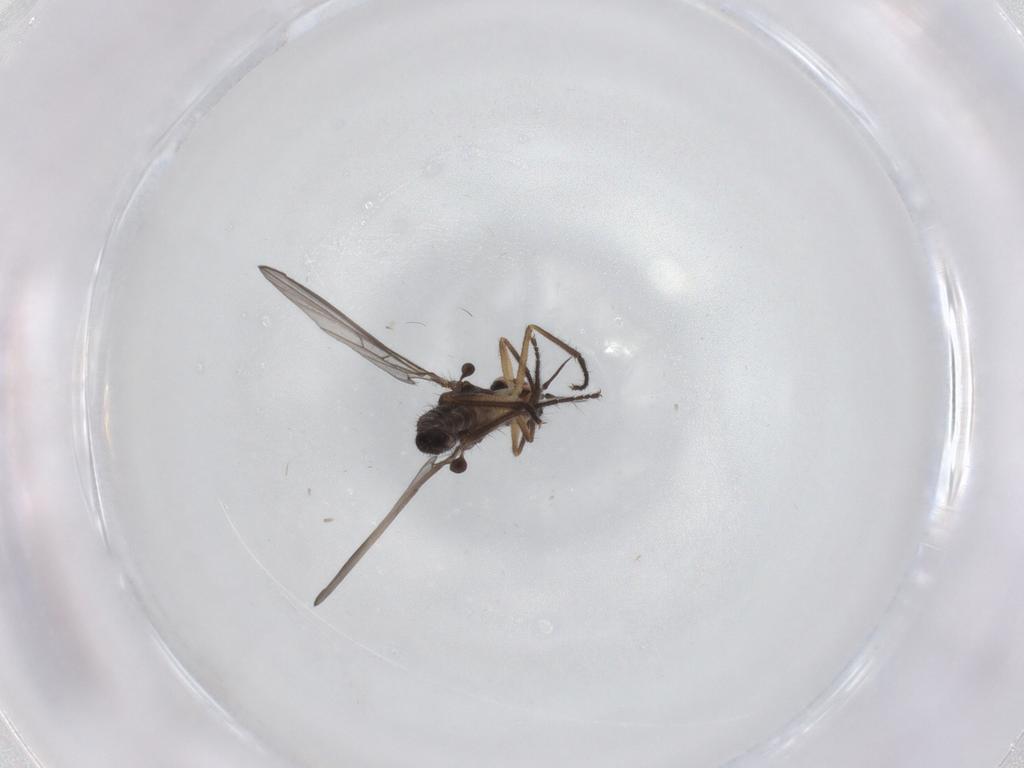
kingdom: Animalia
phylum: Arthropoda
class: Insecta
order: Diptera
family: Empididae
